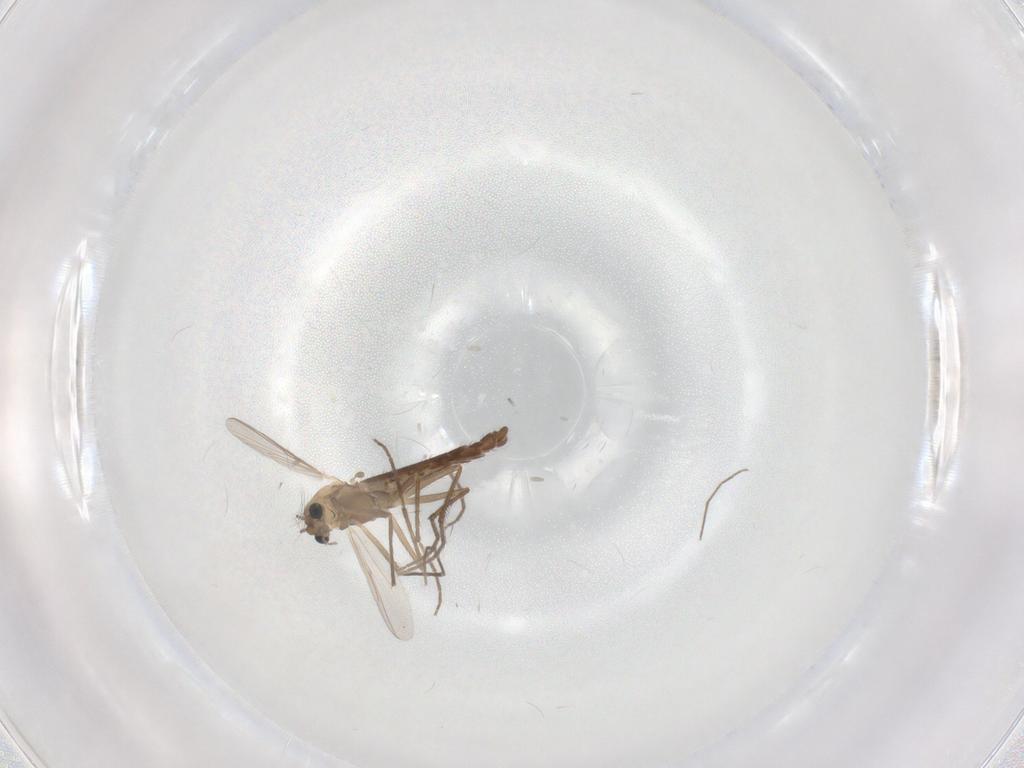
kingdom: Animalia
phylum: Arthropoda
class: Insecta
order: Diptera
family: Chironomidae
